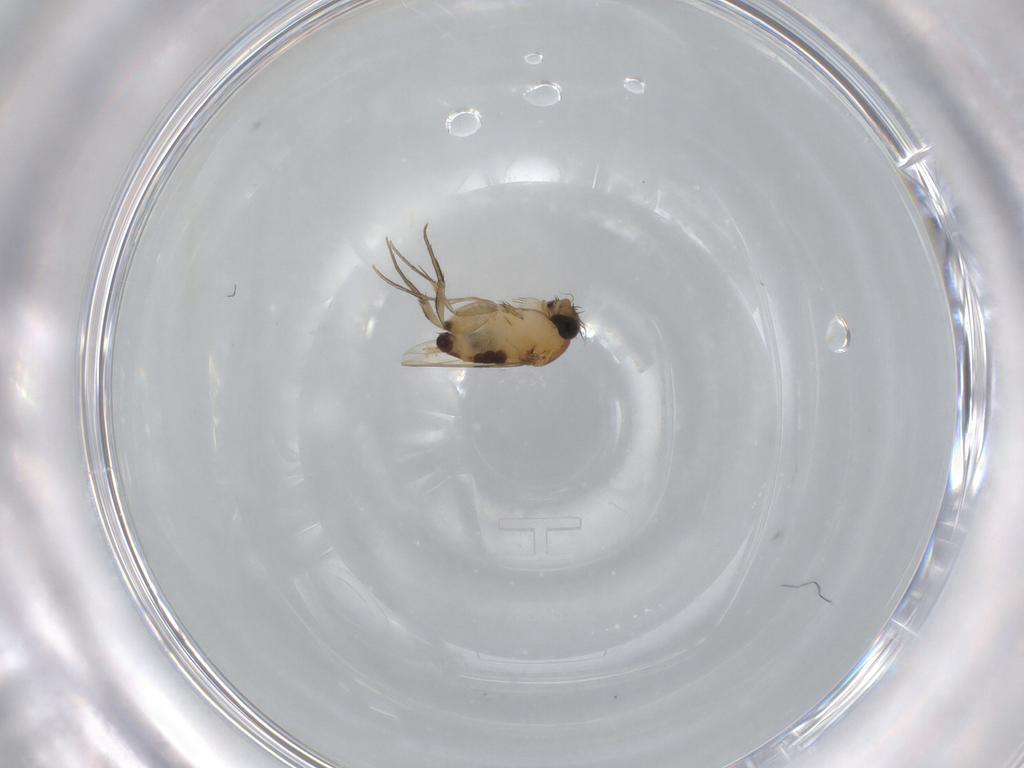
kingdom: Animalia
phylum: Arthropoda
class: Insecta
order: Diptera
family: Phoridae
